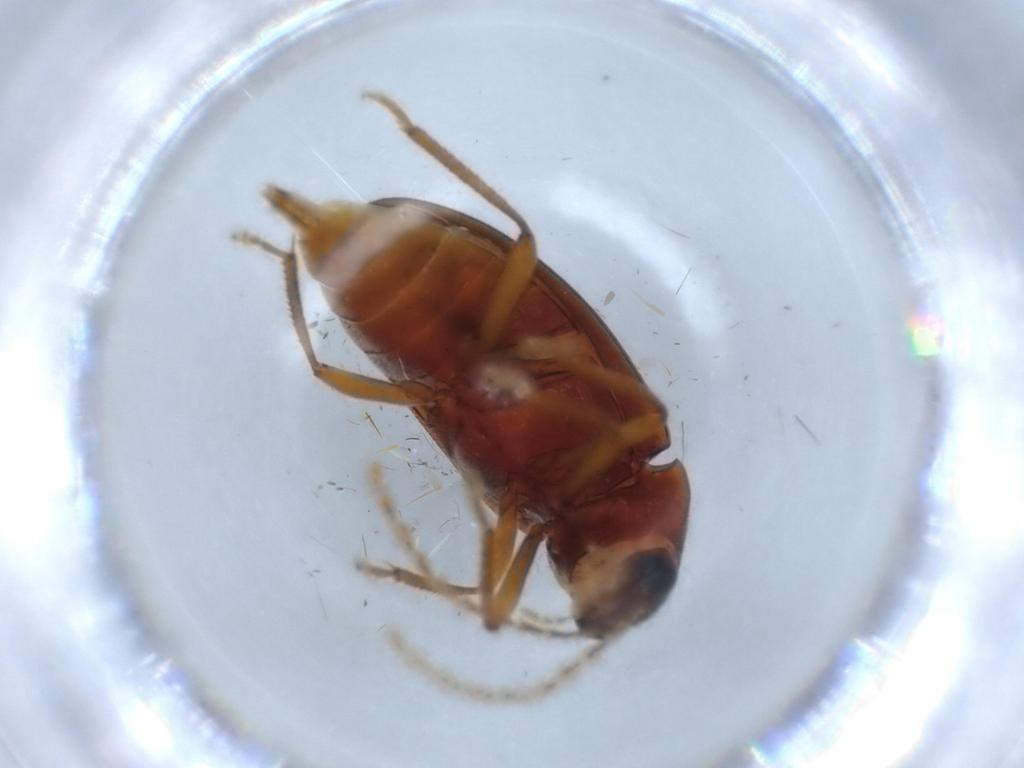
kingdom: Animalia
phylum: Arthropoda
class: Insecta
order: Coleoptera
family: Ptilodactylidae
